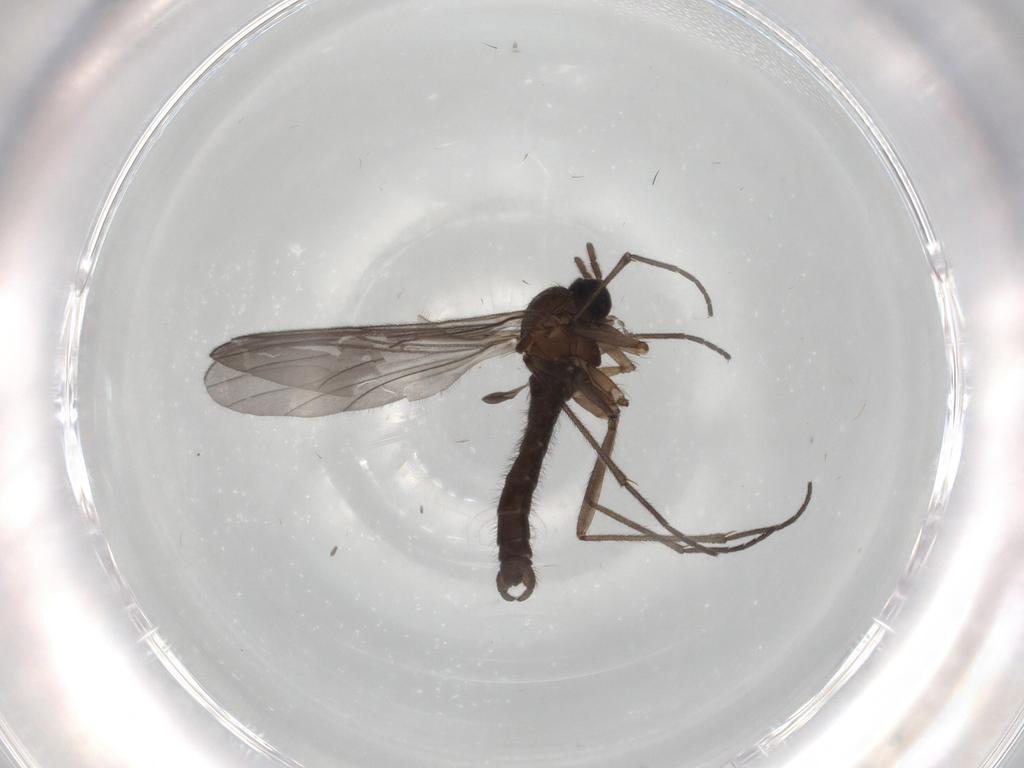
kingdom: Animalia
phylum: Arthropoda
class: Insecta
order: Diptera
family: Sciaridae
